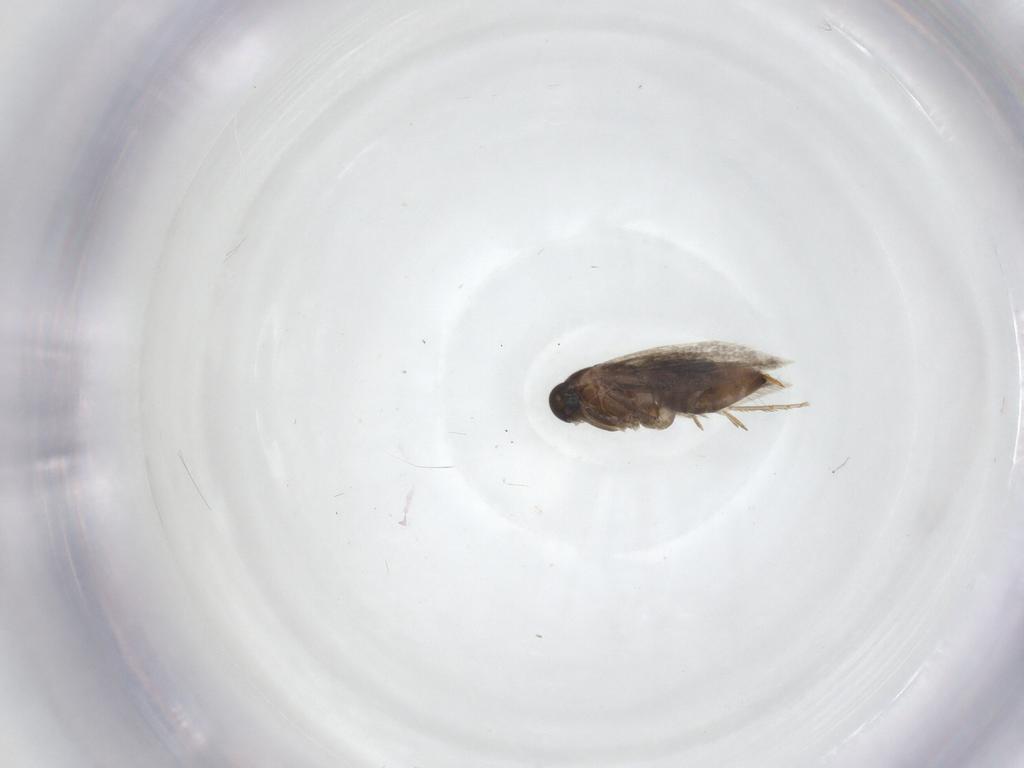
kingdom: Animalia
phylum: Arthropoda
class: Insecta
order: Lepidoptera
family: Heliozelidae
